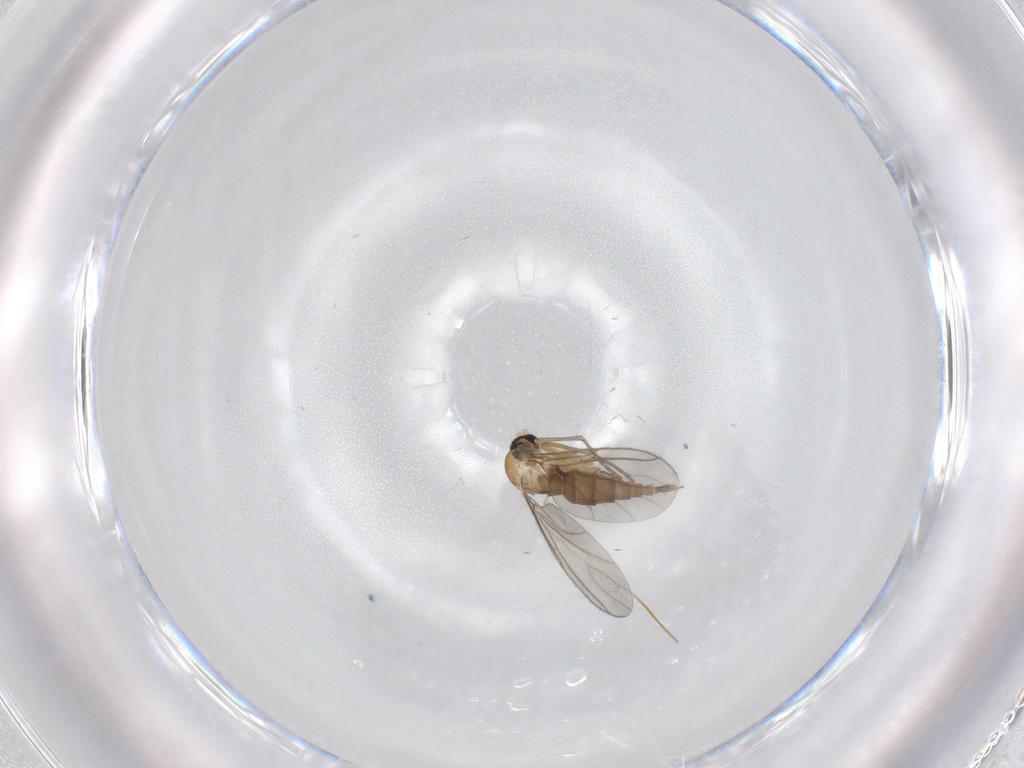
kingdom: Animalia
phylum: Arthropoda
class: Insecta
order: Diptera
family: Sciaridae
